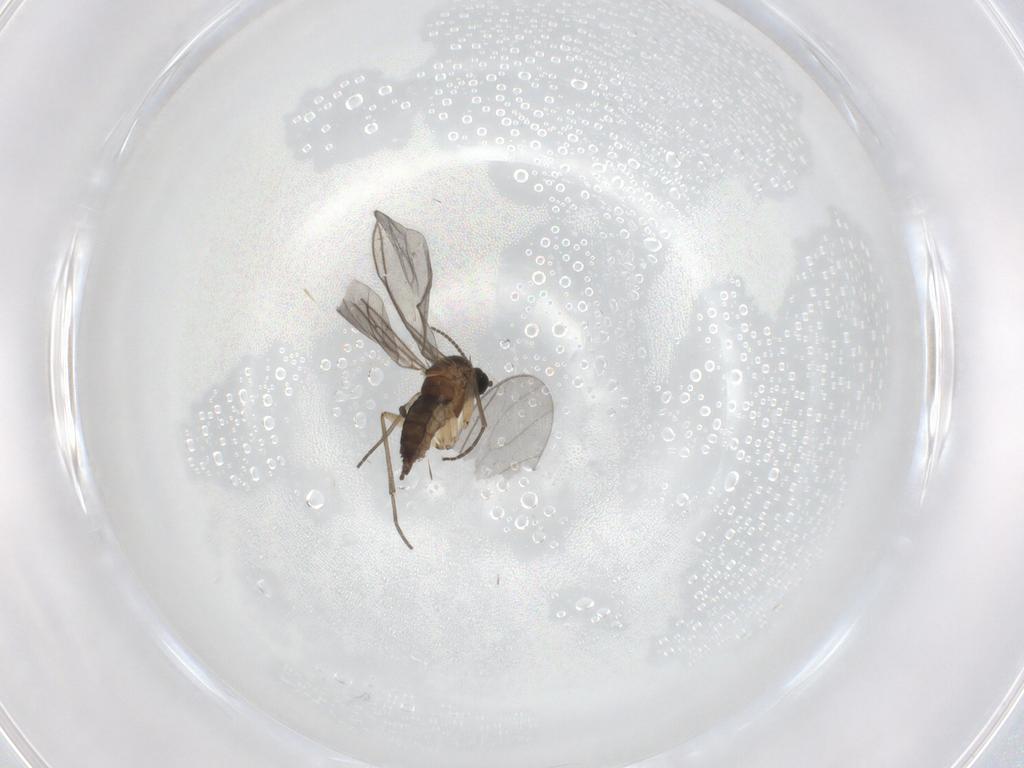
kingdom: Animalia
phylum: Arthropoda
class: Insecta
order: Diptera
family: Sciaridae
